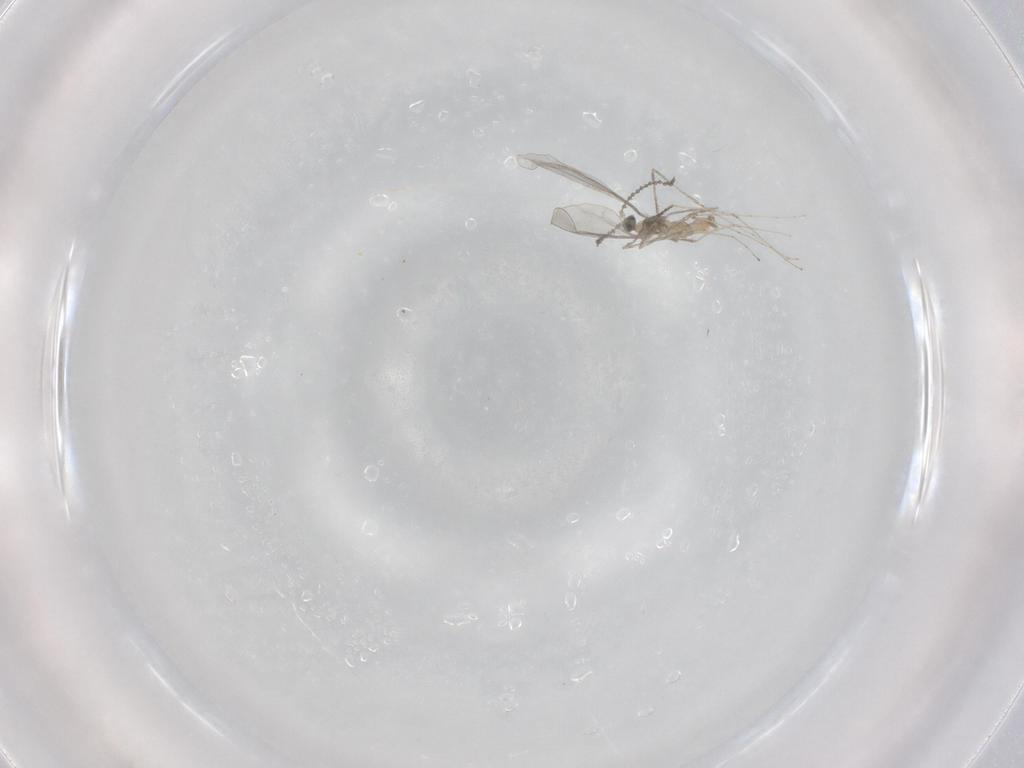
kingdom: Animalia
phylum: Arthropoda
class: Insecta
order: Diptera
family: Cecidomyiidae
